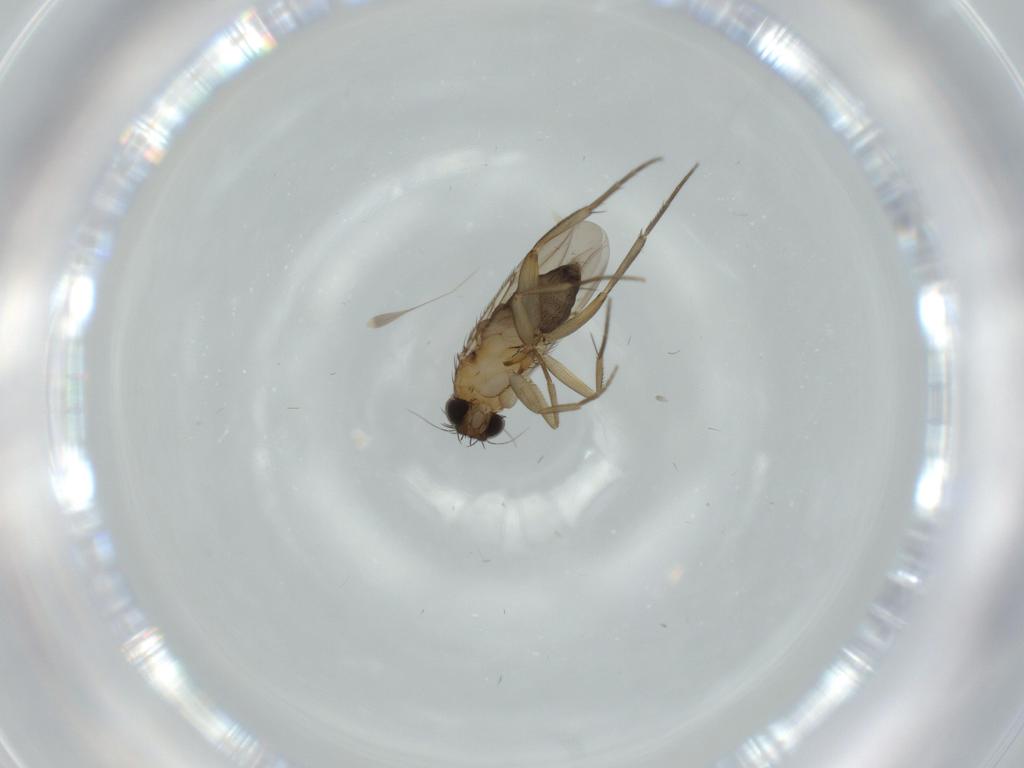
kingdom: Animalia
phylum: Arthropoda
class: Insecta
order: Diptera
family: Phoridae
